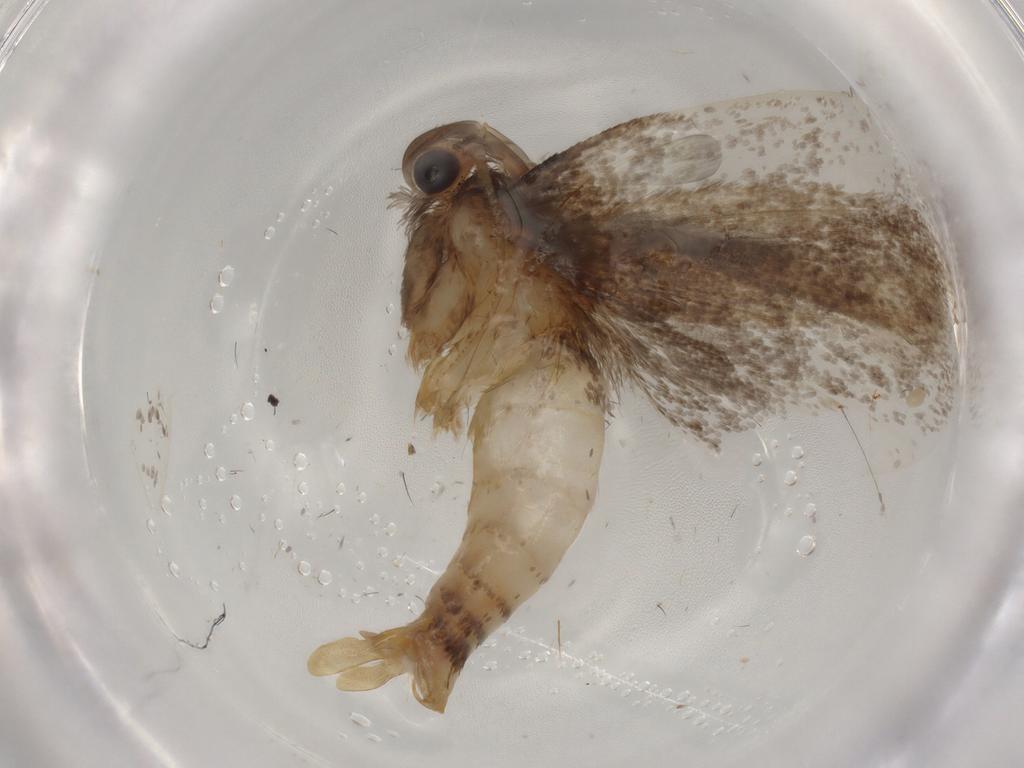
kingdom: Animalia
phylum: Arthropoda
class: Insecta
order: Lepidoptera
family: Tineidae
